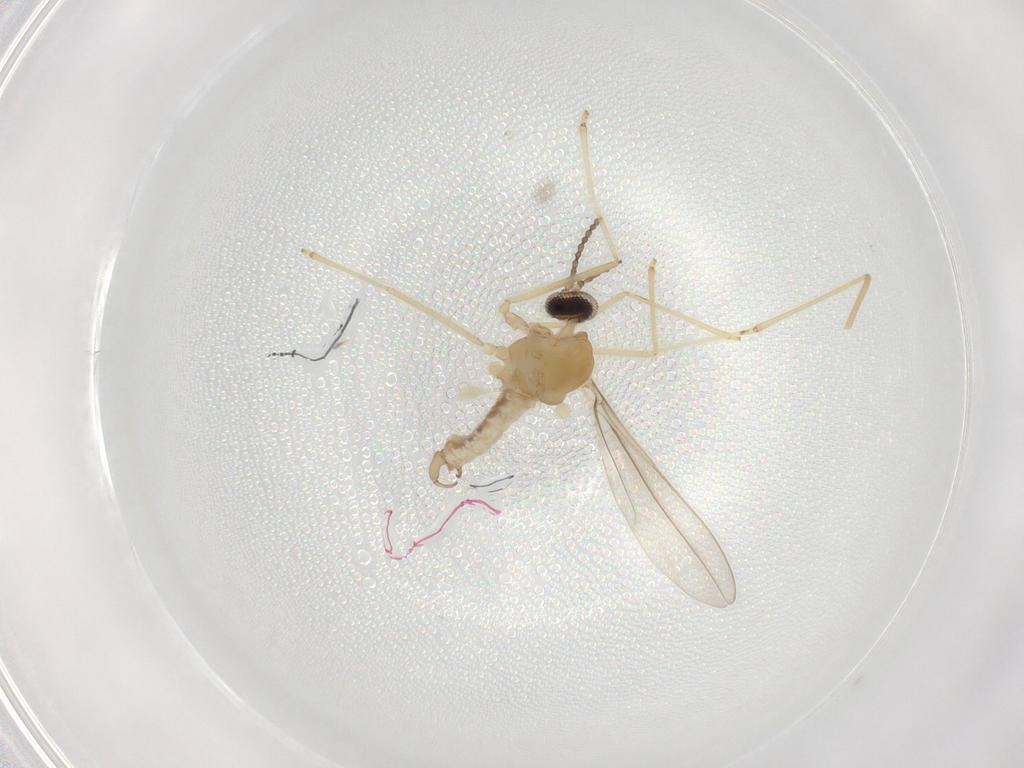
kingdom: Animalia
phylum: Arthropoda
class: Insecta
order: Diptera
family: Cecidomyiidae
